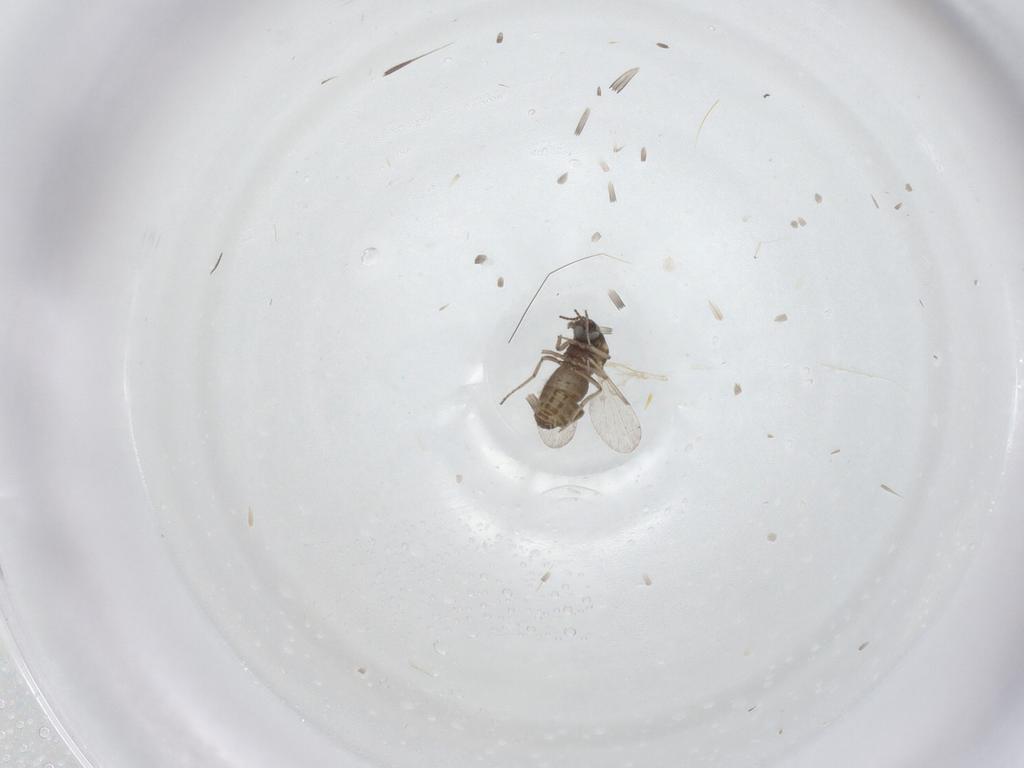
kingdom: Animalia
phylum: Arthropoda
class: Insecta
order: Diptera
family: Ceratopogonidae
